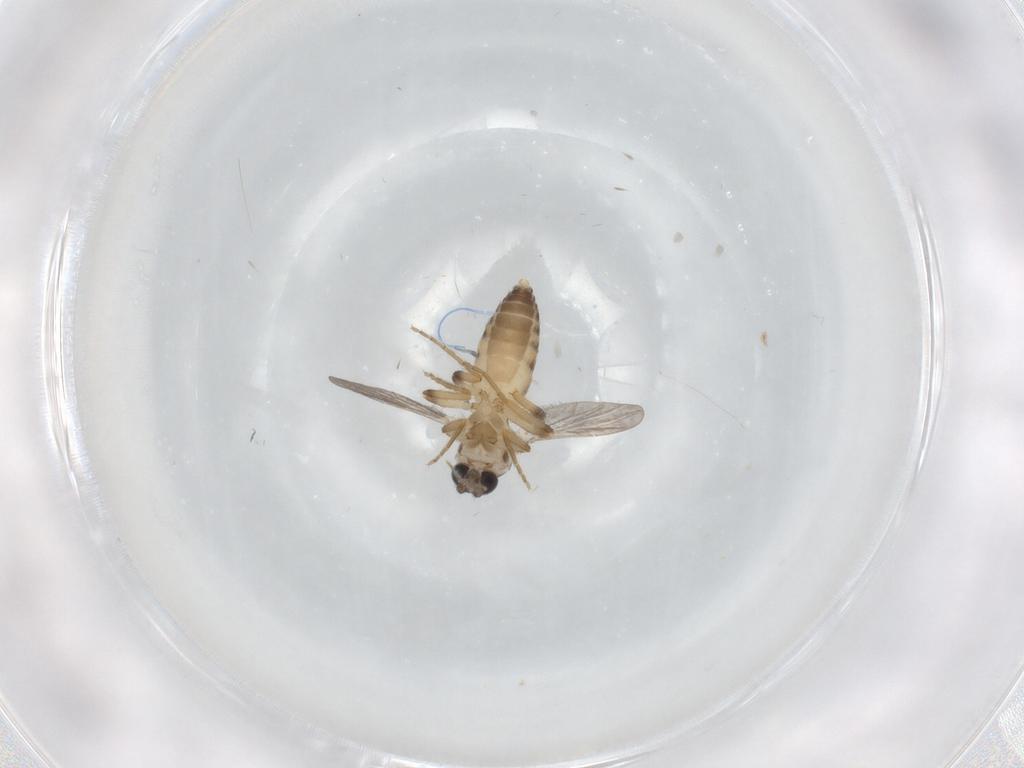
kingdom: Animalia
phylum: Arthropoda
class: Insecta
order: Diptera
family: Ceratopogonidae
